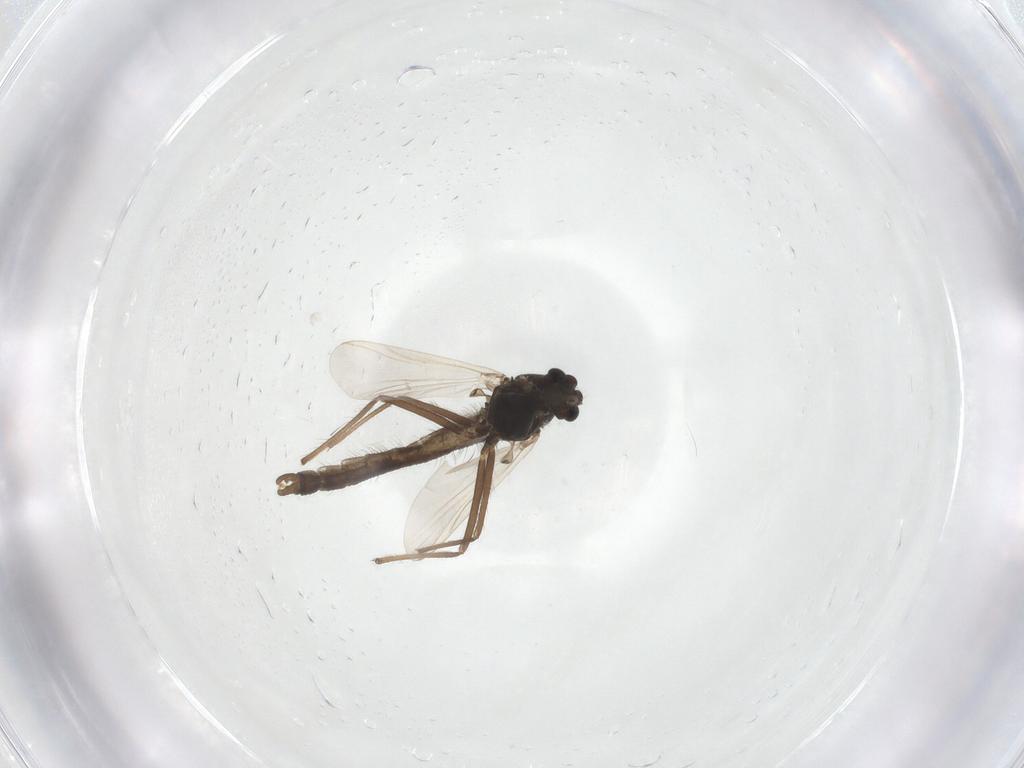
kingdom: Animalia
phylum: Arthropoda
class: Insecta
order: Diptera
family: Chironomidae
